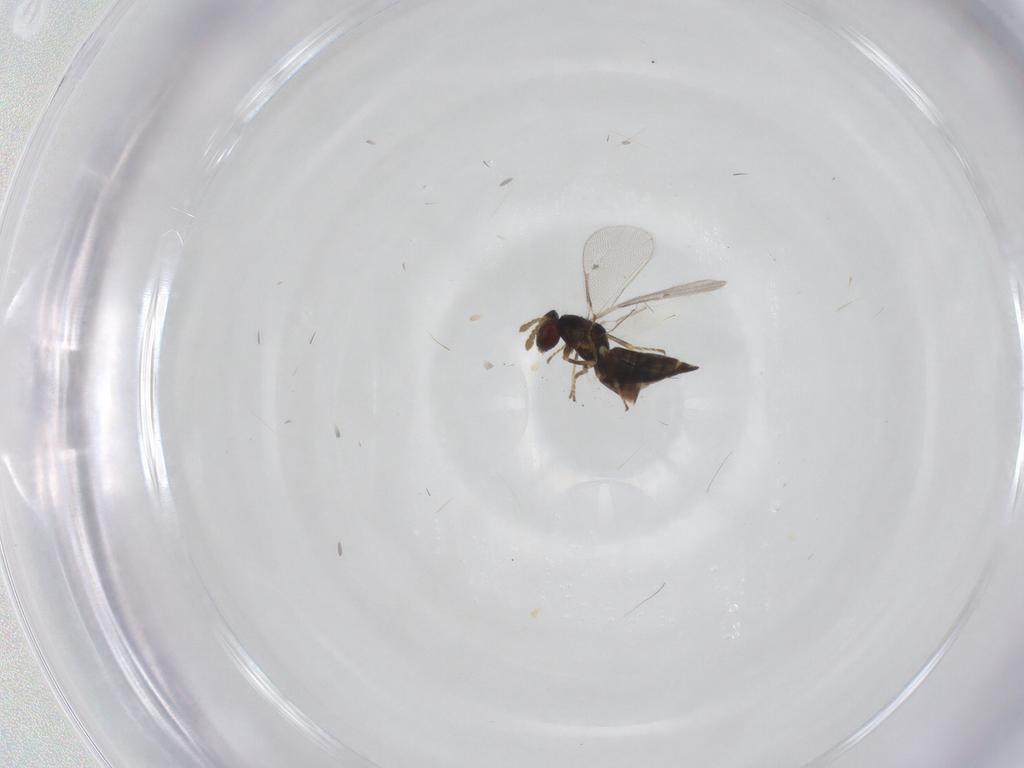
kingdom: Animalia
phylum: Arthropoda
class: Insecta
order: Hymenoptera
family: Eulophidae
